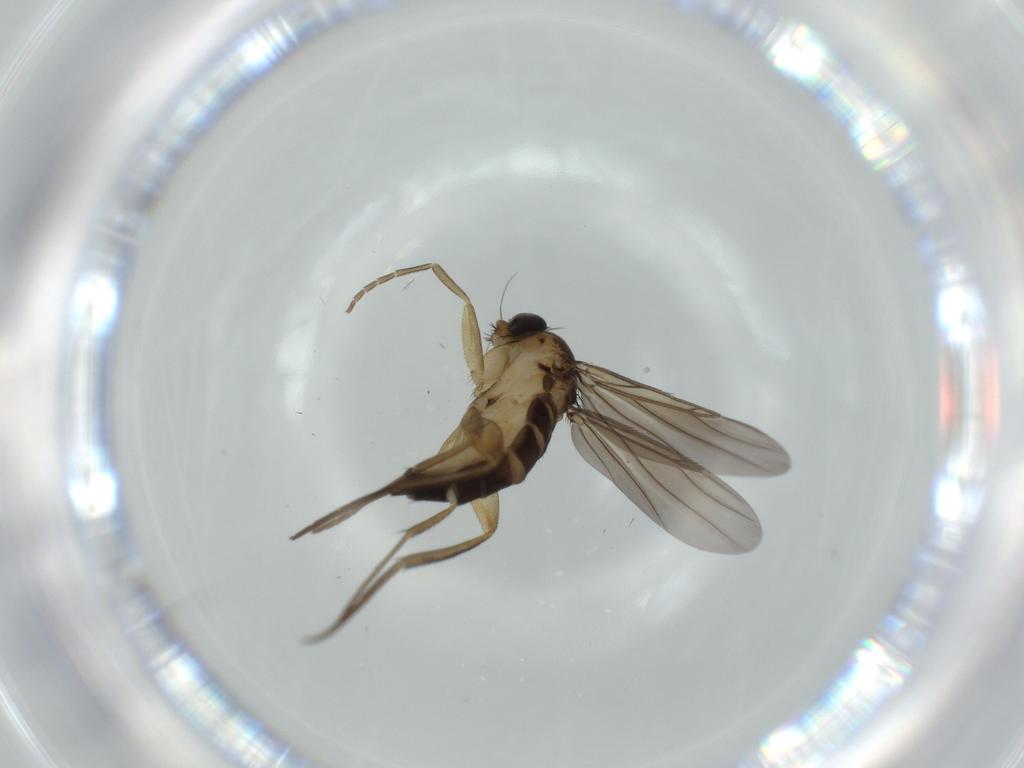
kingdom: Animalia
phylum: Arthropoda
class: Insecta
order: Diptera
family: Phoridae
